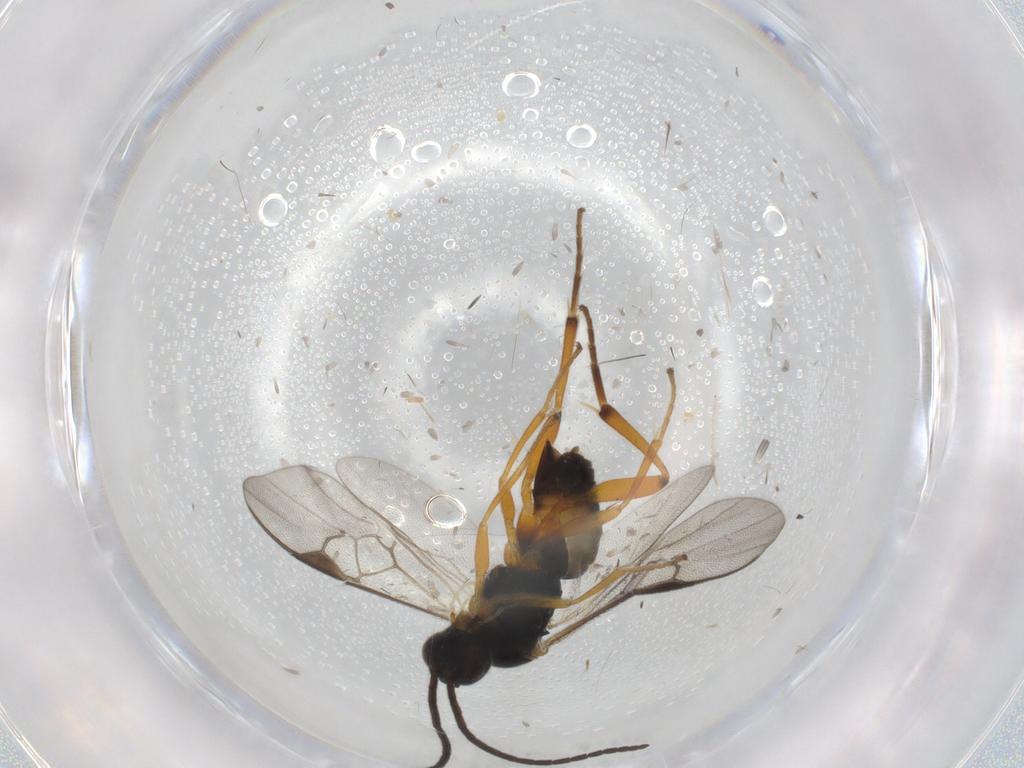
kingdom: Animalia
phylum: Arthropoda
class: Insecta
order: Hymenoptera
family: Braconidae
